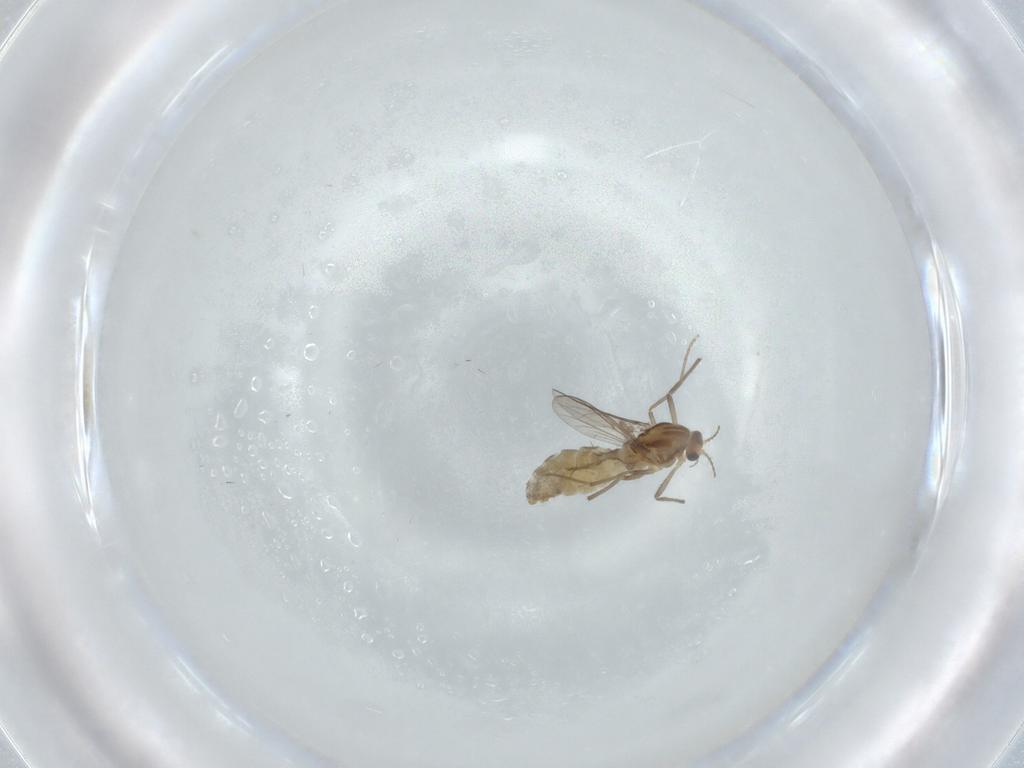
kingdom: Animalia
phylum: Arthropoda
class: Insecta
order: Diptera
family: Chironomidae
